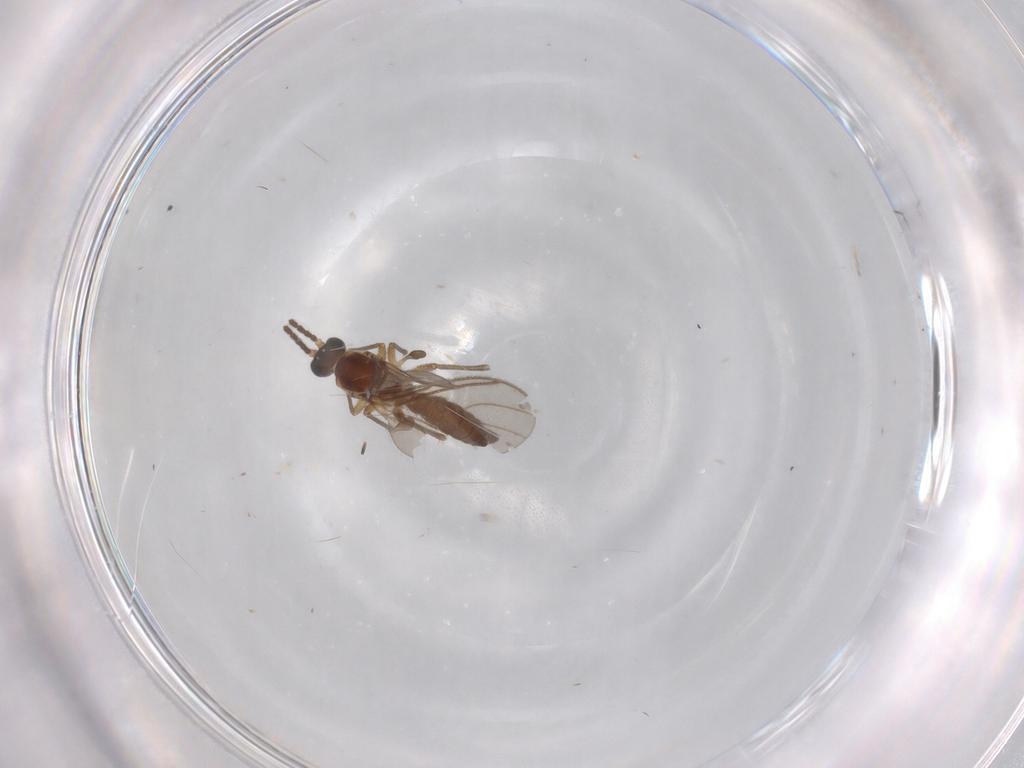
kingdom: Animalia
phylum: Arthropoda
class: Insecta
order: Diptera
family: Sciaridae
